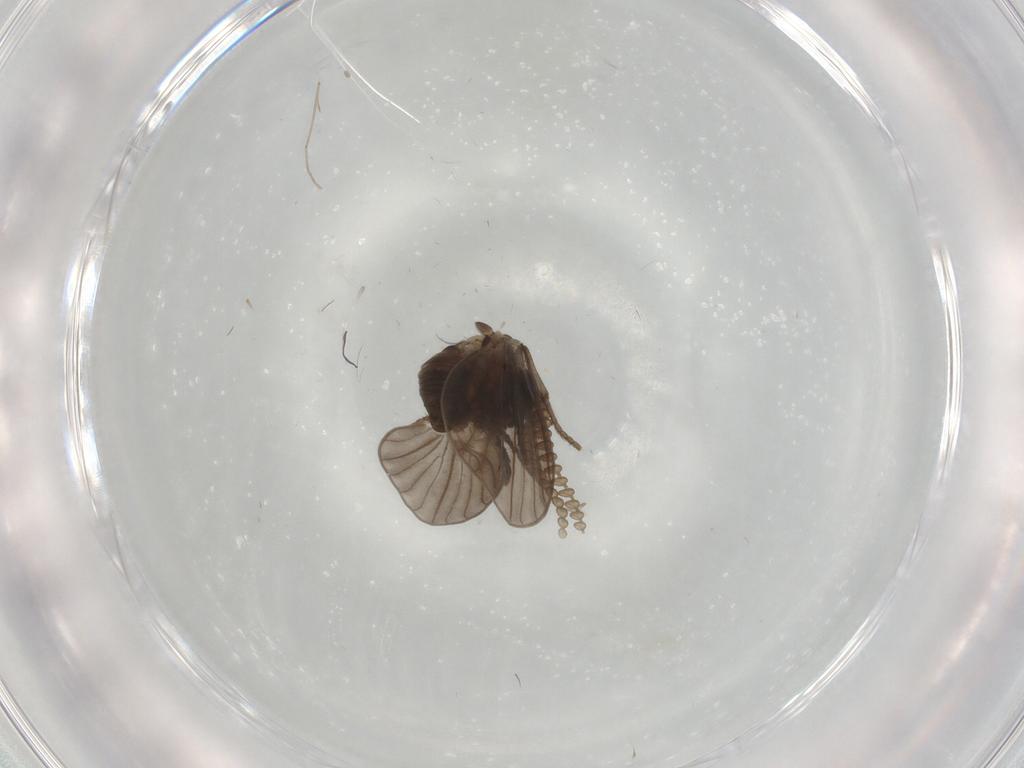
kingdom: Animalia
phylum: Arthropoda
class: Insecta
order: Diptera
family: Psychodidae
